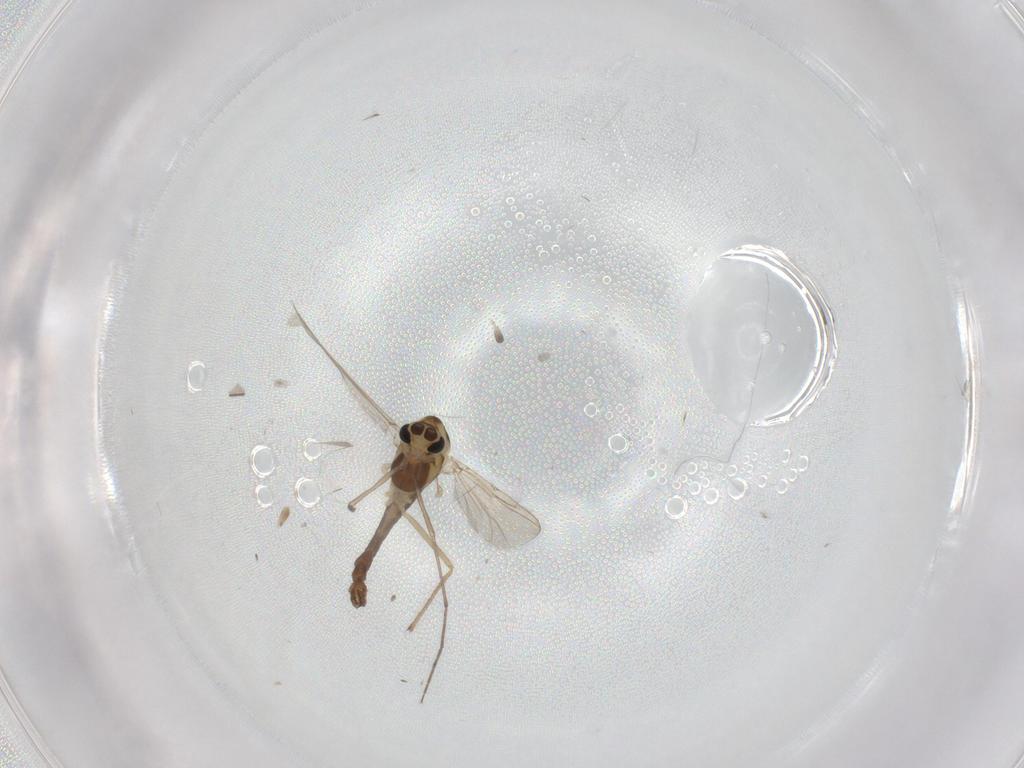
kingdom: Animalia
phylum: Arthropoda
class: Insecta
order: Diptera
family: Chironomidae
